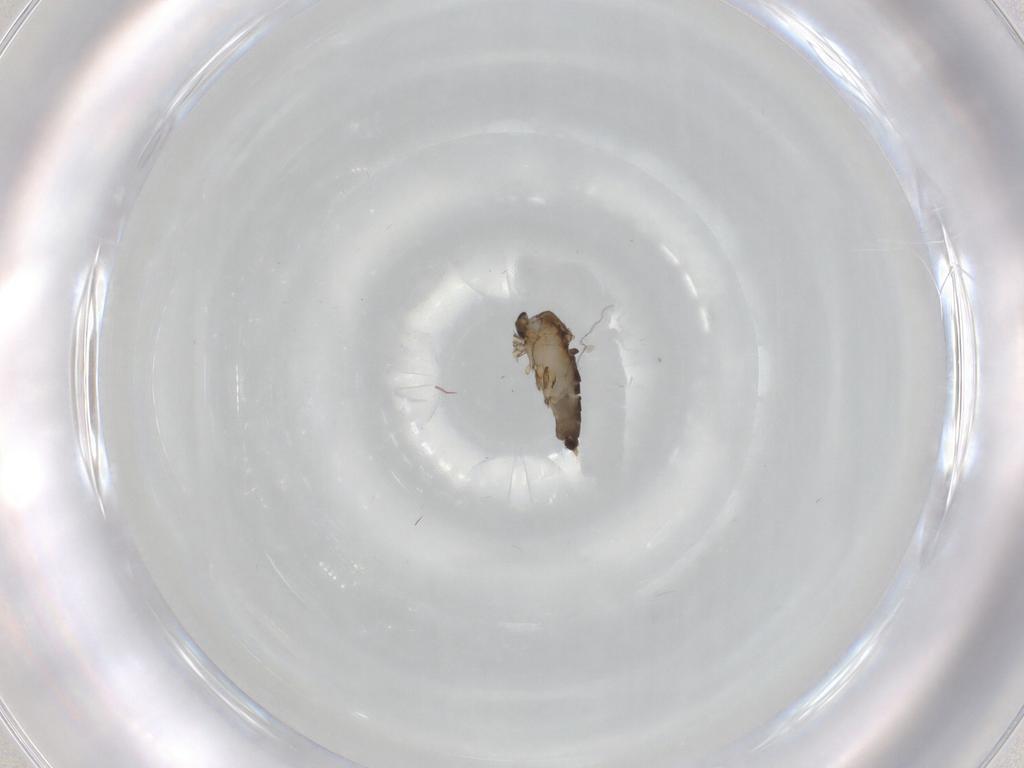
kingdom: Animalia
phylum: Arthropoda
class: Insecta
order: Diptera
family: Phoridae
